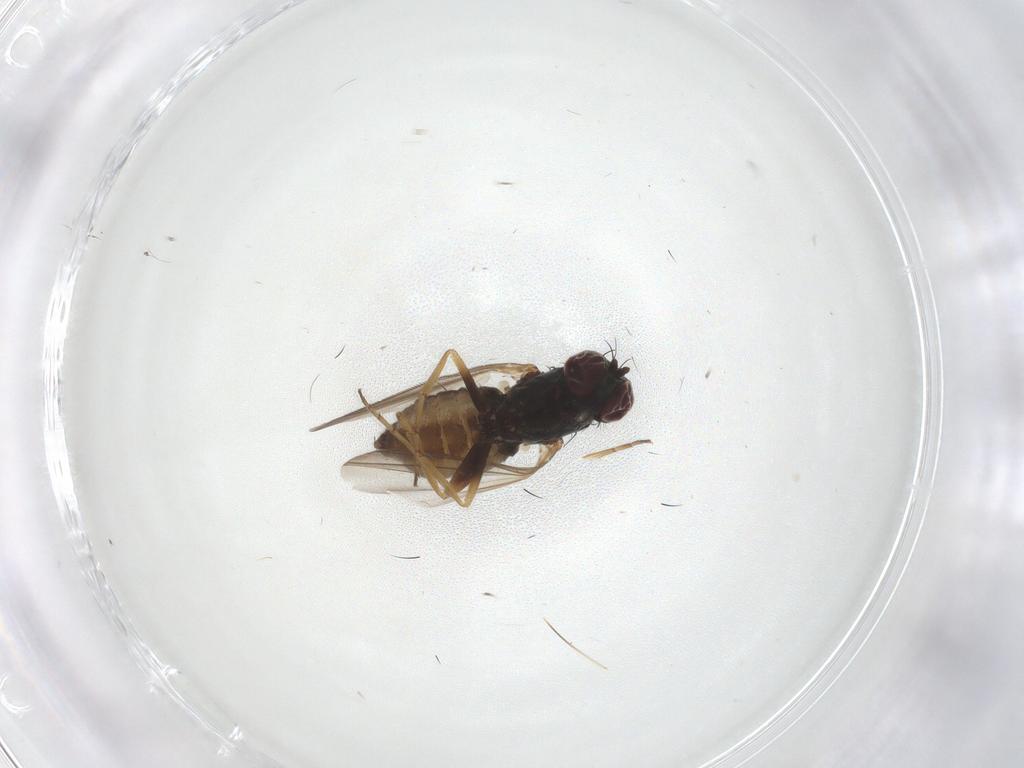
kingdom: Animalia
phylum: Arthropoda
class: Insecta
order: Diptera
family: Dolichopodidae
